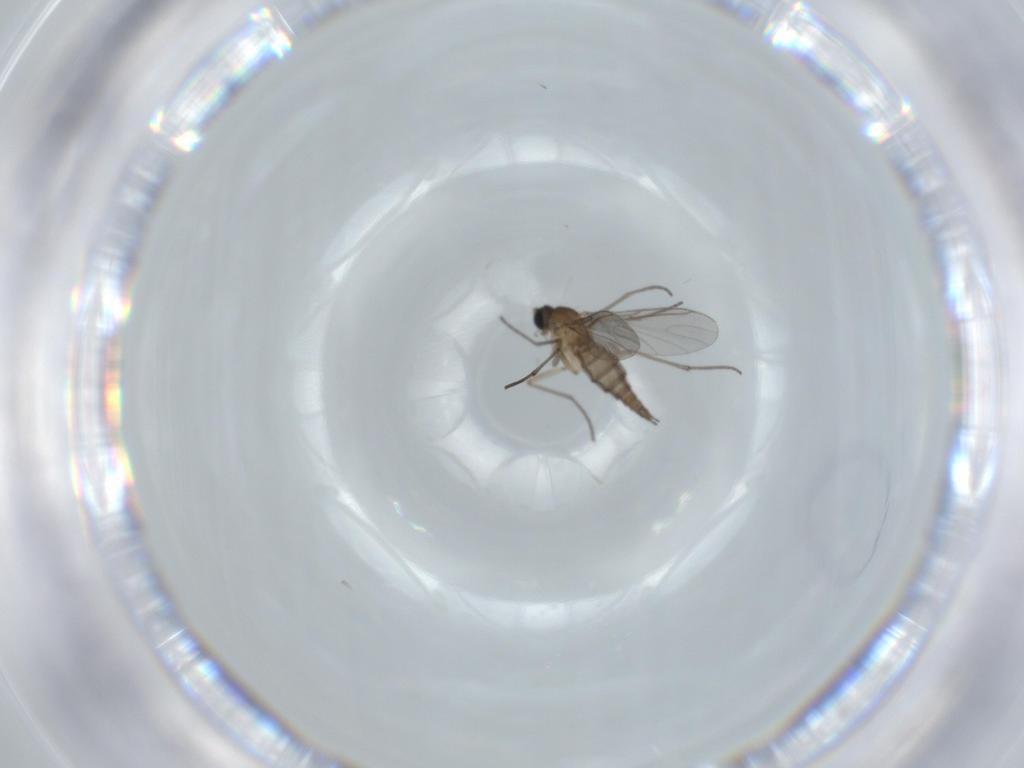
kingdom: Animalia
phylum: Arthropoda
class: Insecta
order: Diptera
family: Sciaridae
